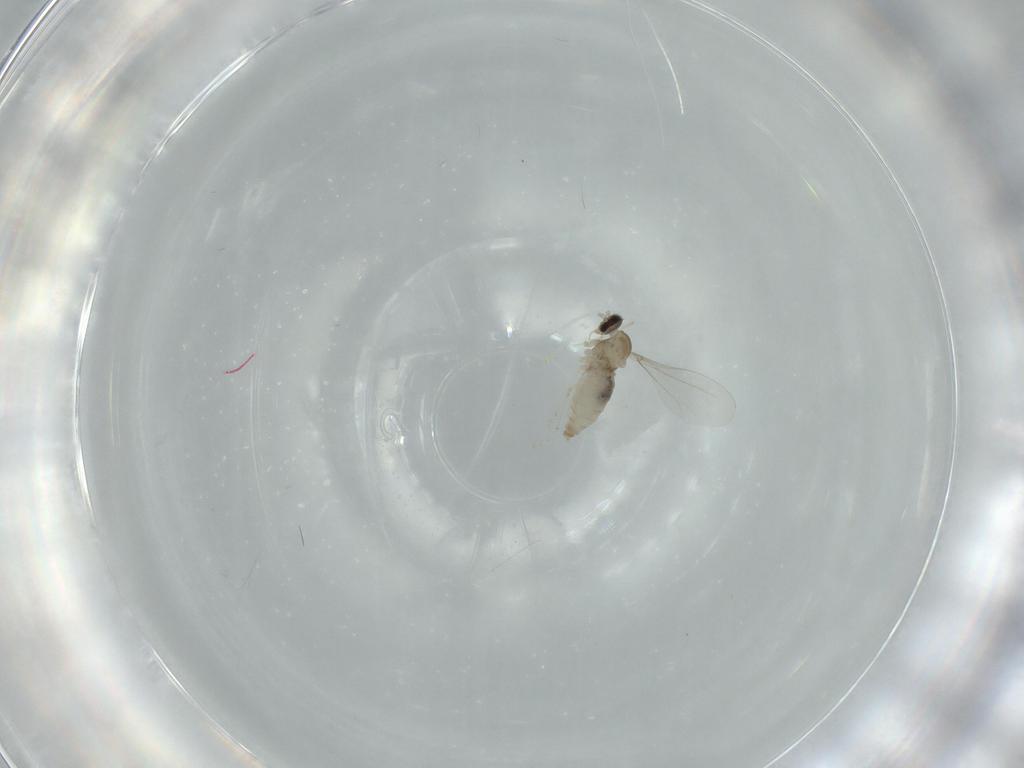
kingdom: Animalia
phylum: Arthropoda
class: Insecta
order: Diptera
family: Cecidomyiidae
